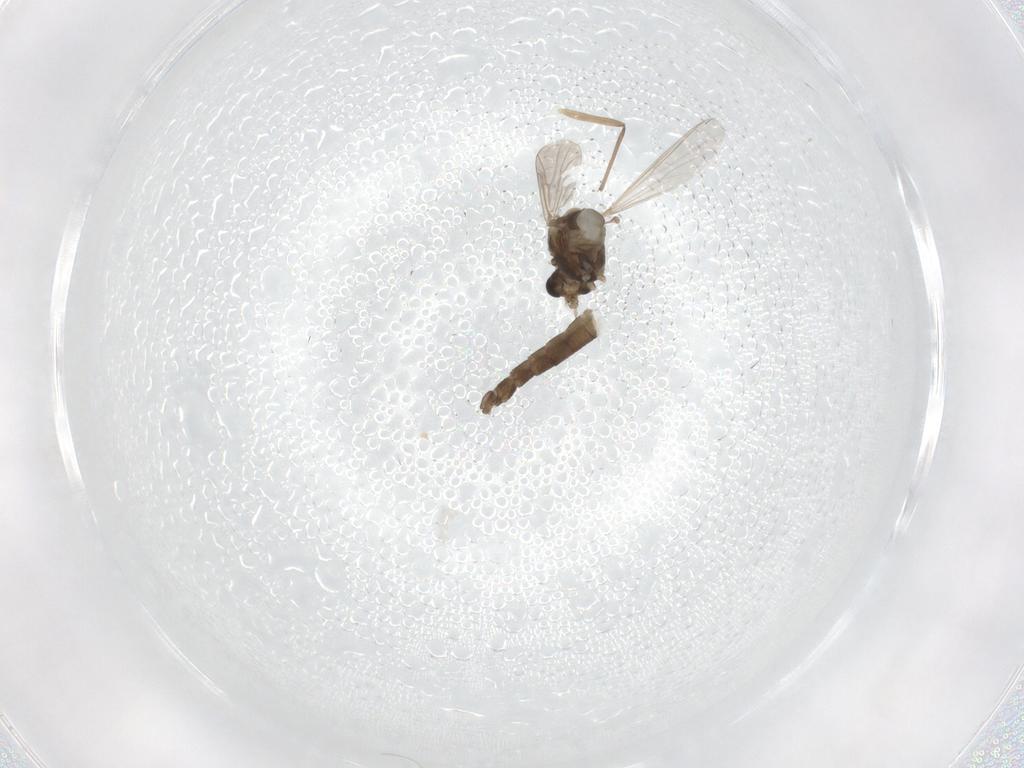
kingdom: Animalia
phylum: Arthropoda
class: Insecta
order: Diptera
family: Chironomidae
